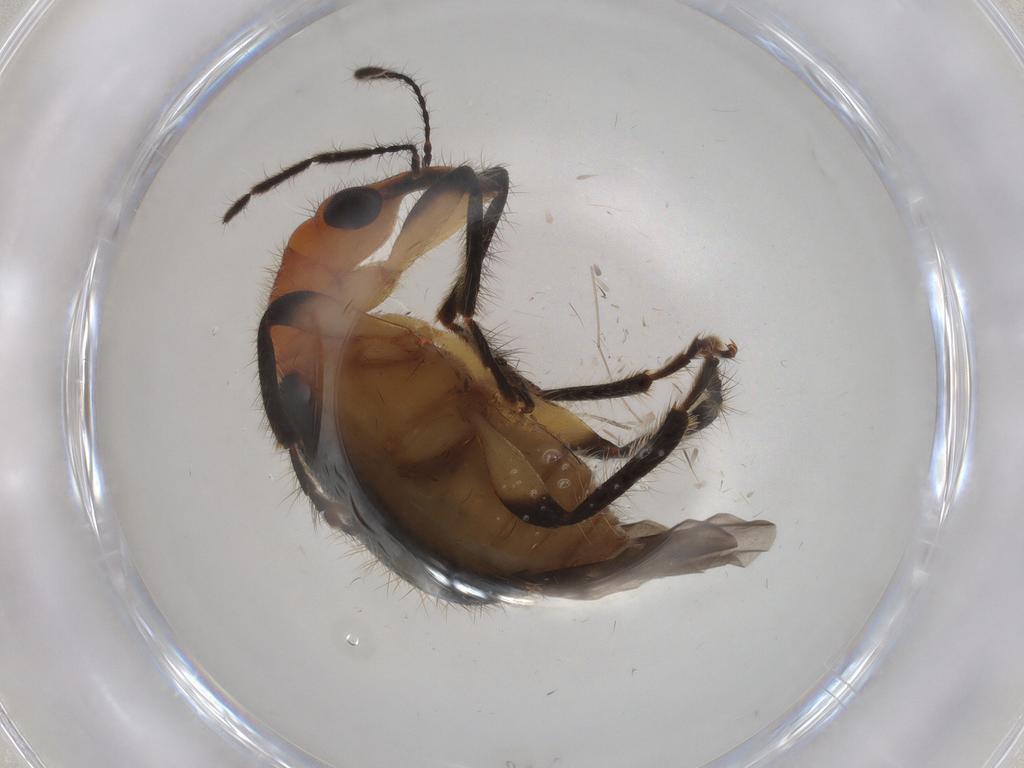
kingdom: Animalia
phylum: Arthropoda
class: Insecta
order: Coleoptera
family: Attelabidae
